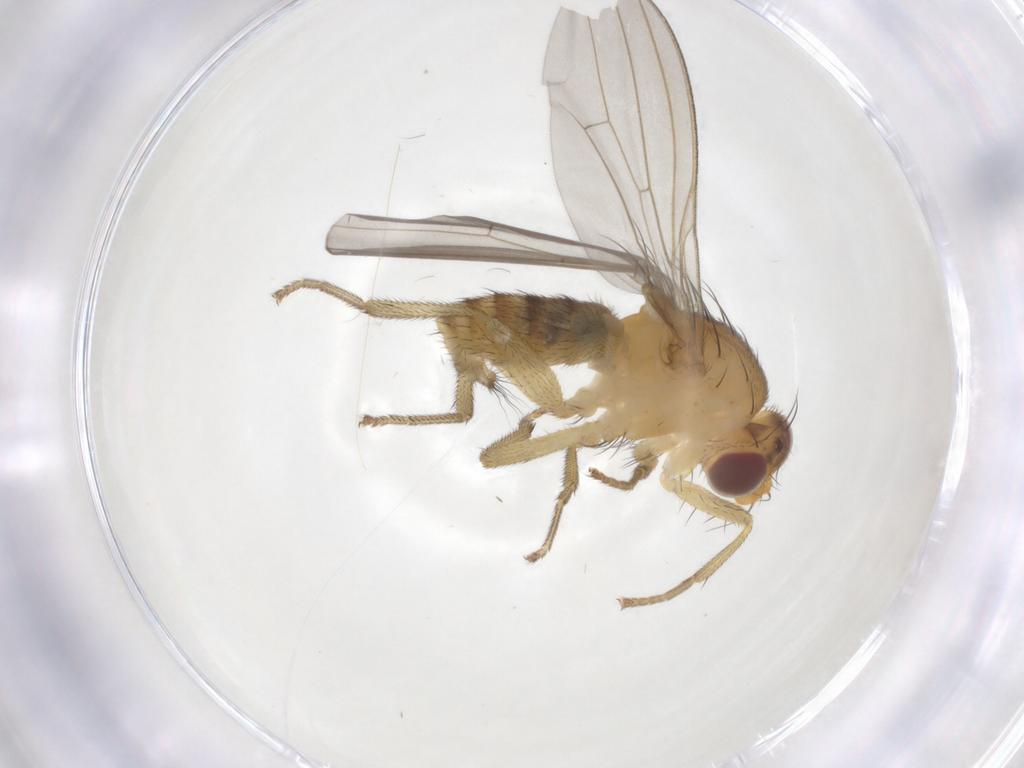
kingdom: Animalia
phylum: Arthropoda
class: Insecta
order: Diptera
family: Lauxaniidae
